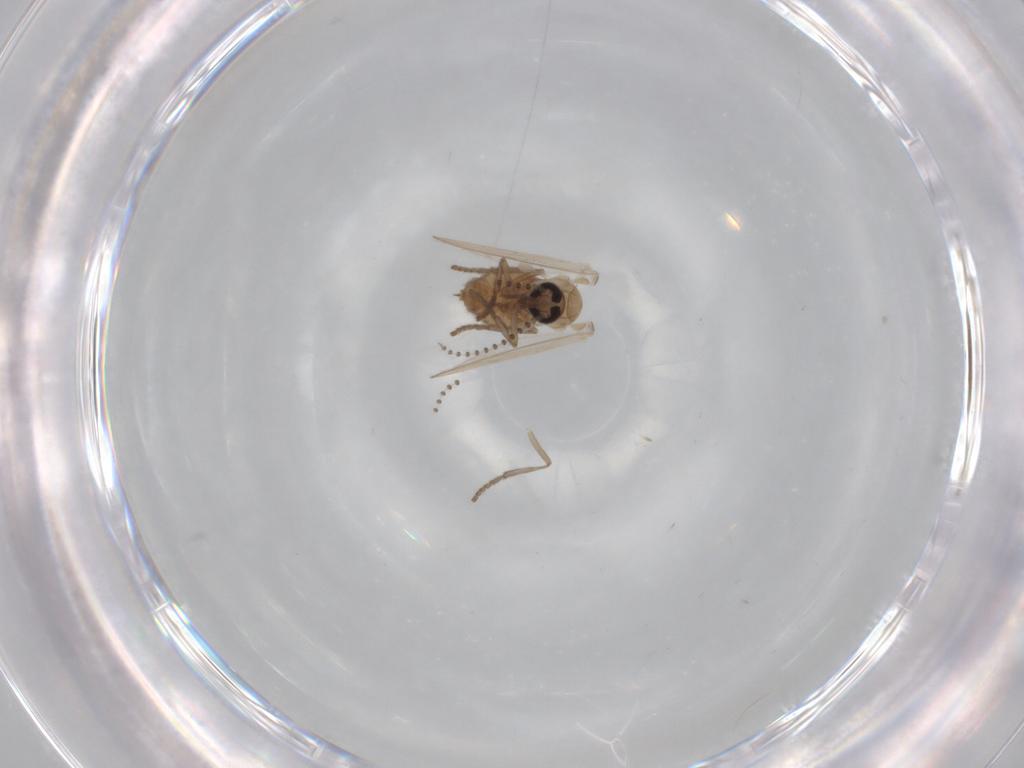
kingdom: Animalia
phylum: Arthropoda
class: Insecta
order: Diptera
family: Psychodidae
